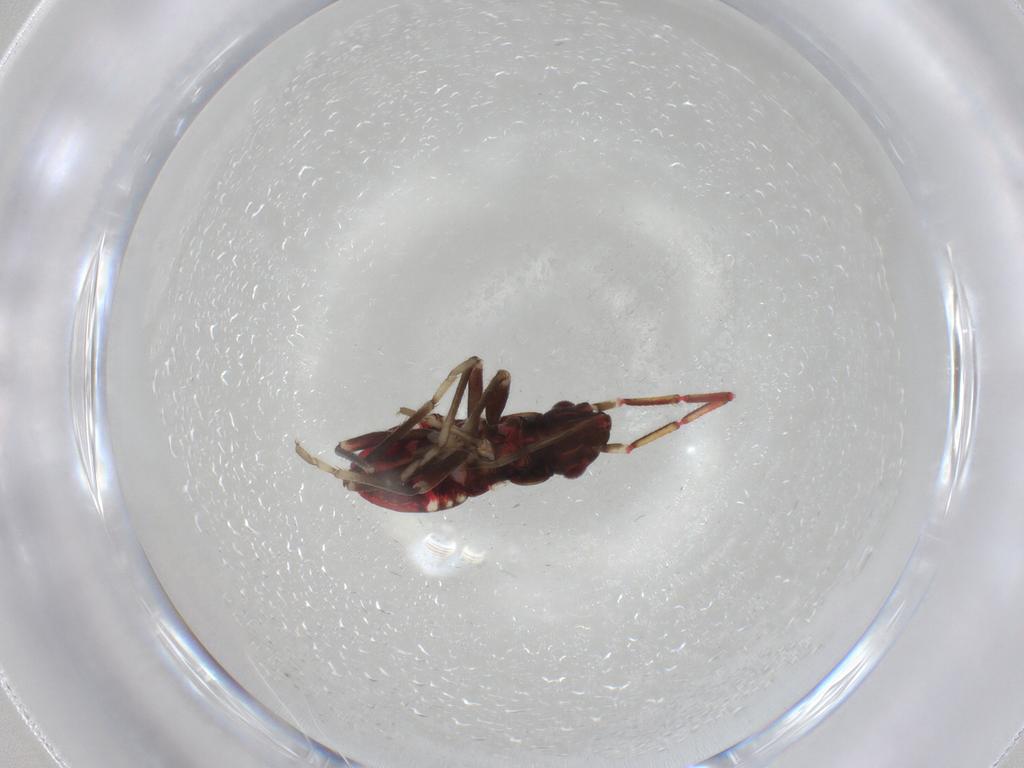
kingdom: Animalia
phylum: Arthropoda
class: Insecta
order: Hemiptera
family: Rhyparochromidae
